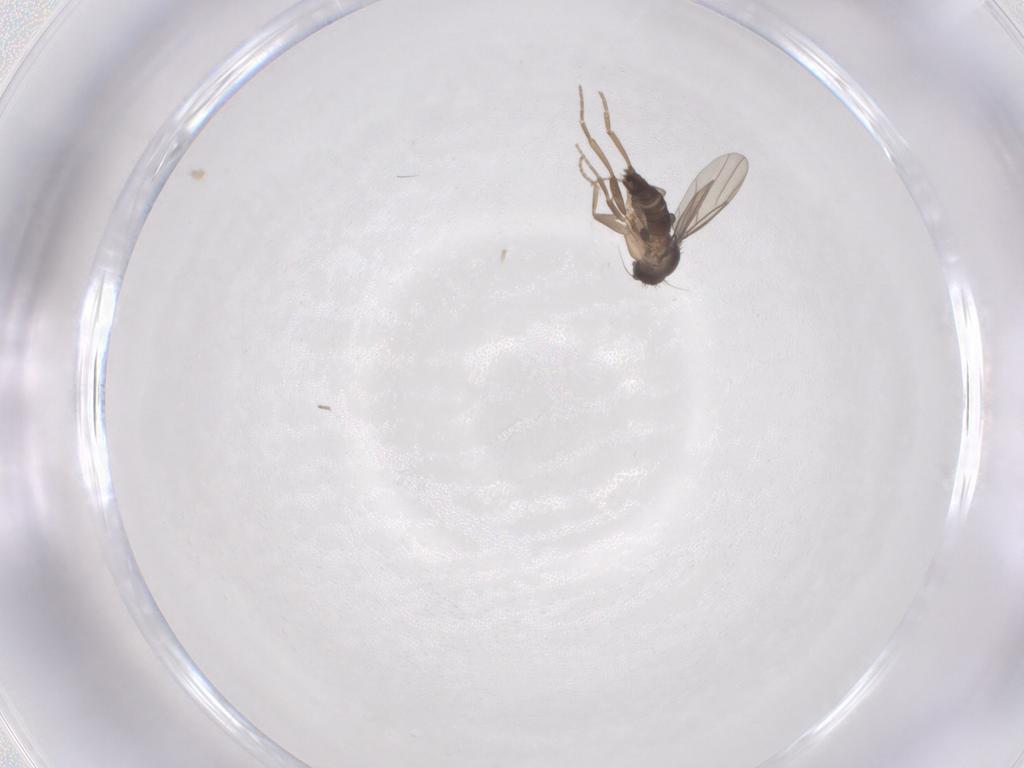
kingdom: Animalia
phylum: Arthropoda
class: Insecta
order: Diptera
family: Phoridae
